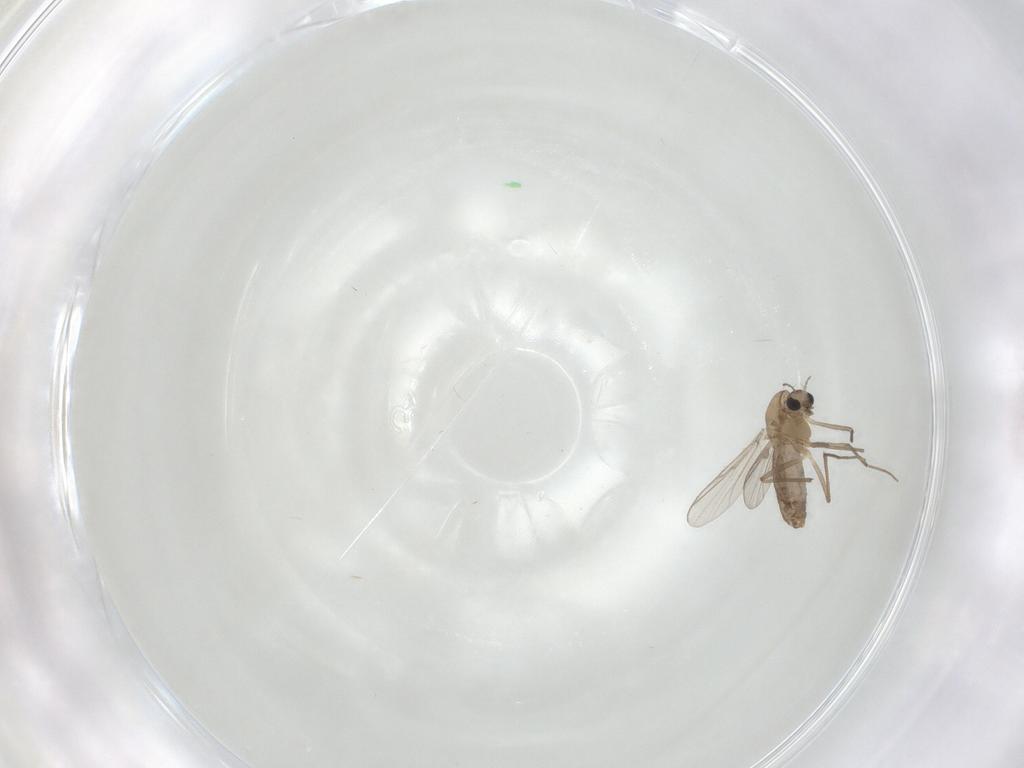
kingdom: Animalia
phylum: Arthropoda
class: Insecta
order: Diptera
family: Chironomidae
